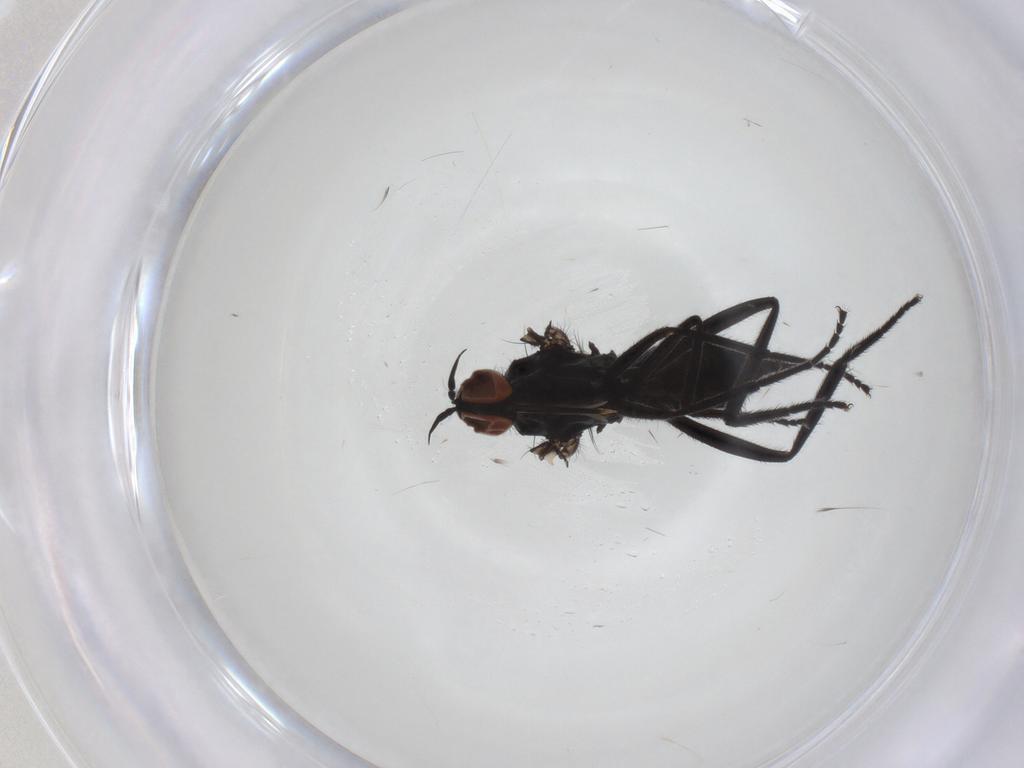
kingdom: Animalia
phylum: Arthropoda
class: Insecta
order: Diptera
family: Empididae
